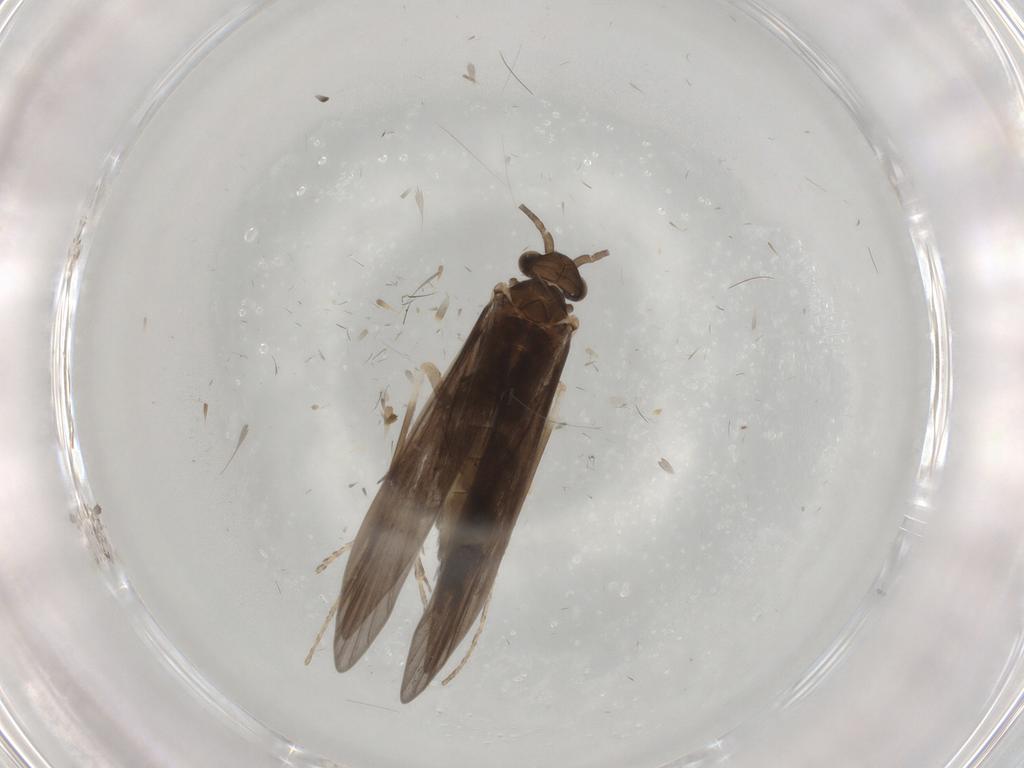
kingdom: Animalia
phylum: Arthropoda
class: Insecta
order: Trichoptera
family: Xiphocentronidae
